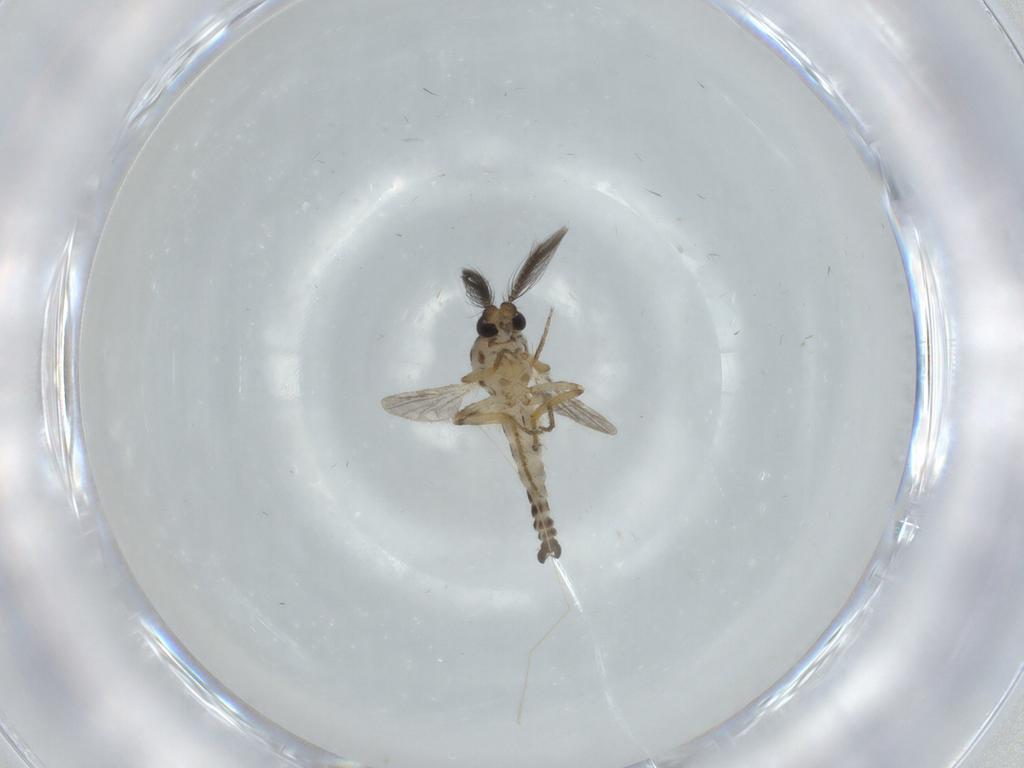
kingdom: Animalia
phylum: Arthropoda
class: Insecta
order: Diptera
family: Ceratopogonidae
